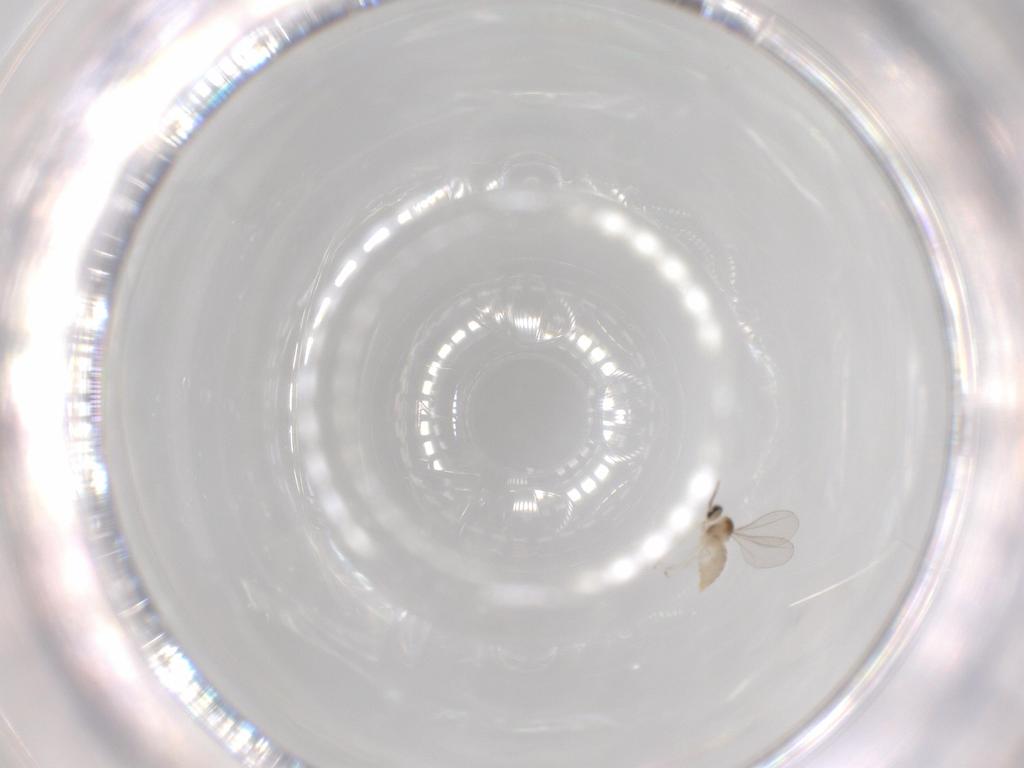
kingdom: Animalia
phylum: Arthropoda
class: Insecta
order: Diptera
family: Cecidomyiidae
